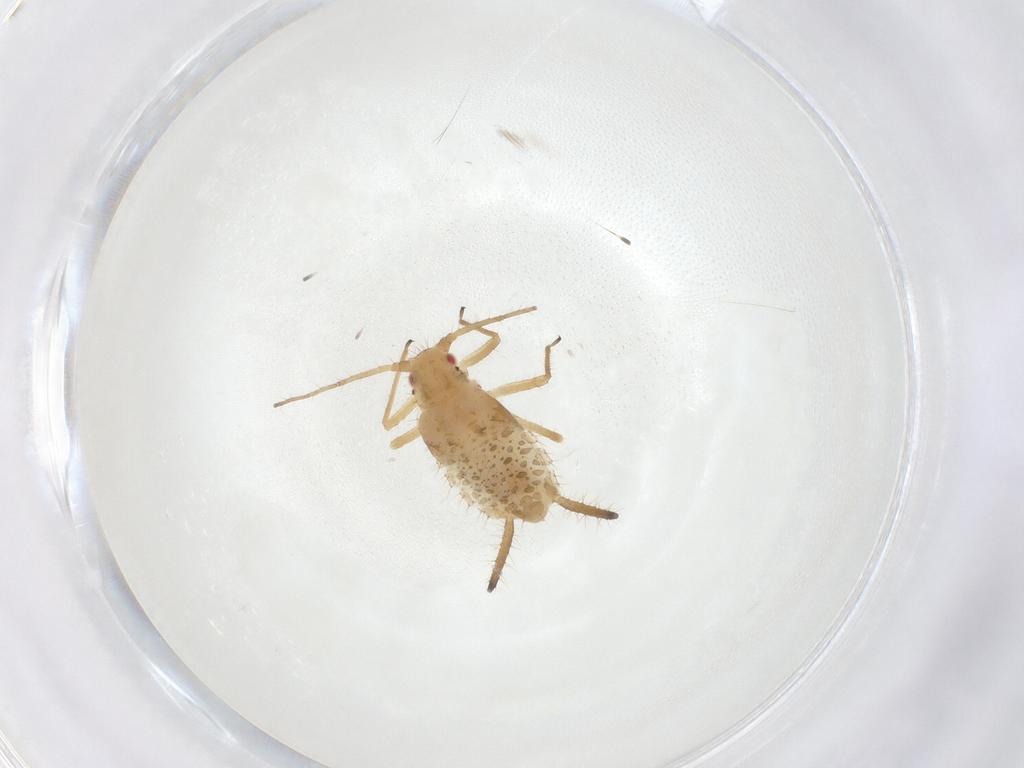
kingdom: Animalia
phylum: Arthropoda
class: Insecta
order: Hemiptera
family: Aphididae
